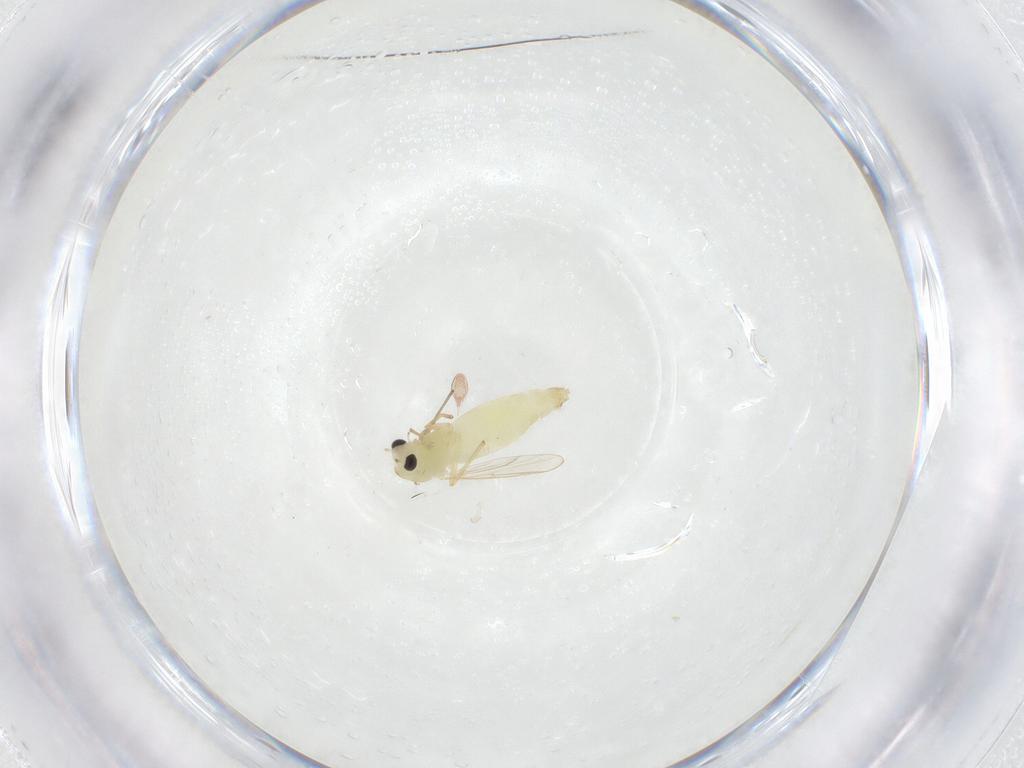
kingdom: Animalia
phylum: Arthropoda
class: Insecta
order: Diptera
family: Chironomidae
